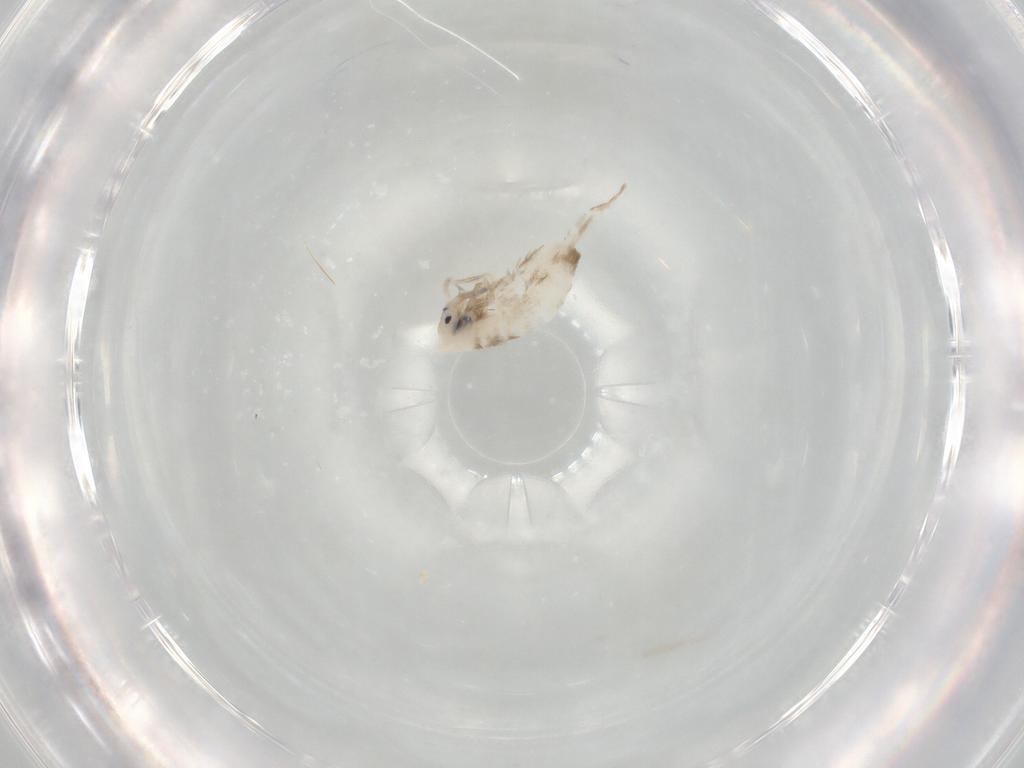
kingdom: Animalia
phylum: Arthropoda
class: Collembola
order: Entomobryomorpha
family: Entomobryidae
